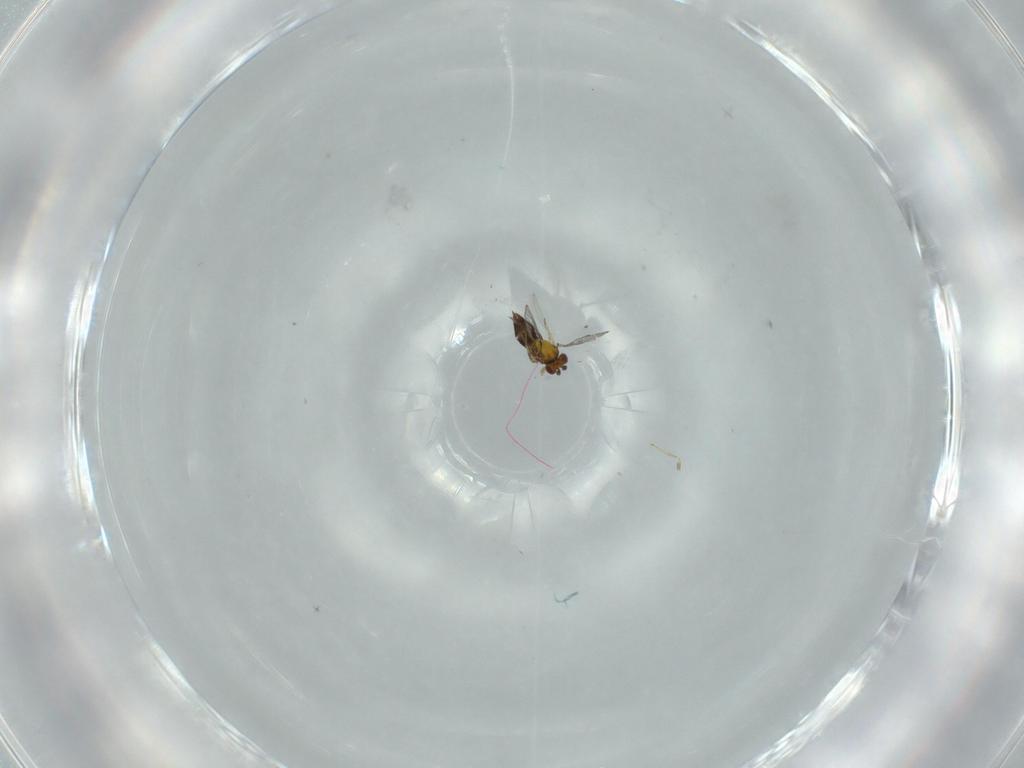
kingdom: Animalia
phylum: Arthropoda
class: Insecta
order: Hymenoptera
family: Trichogrammatidae
